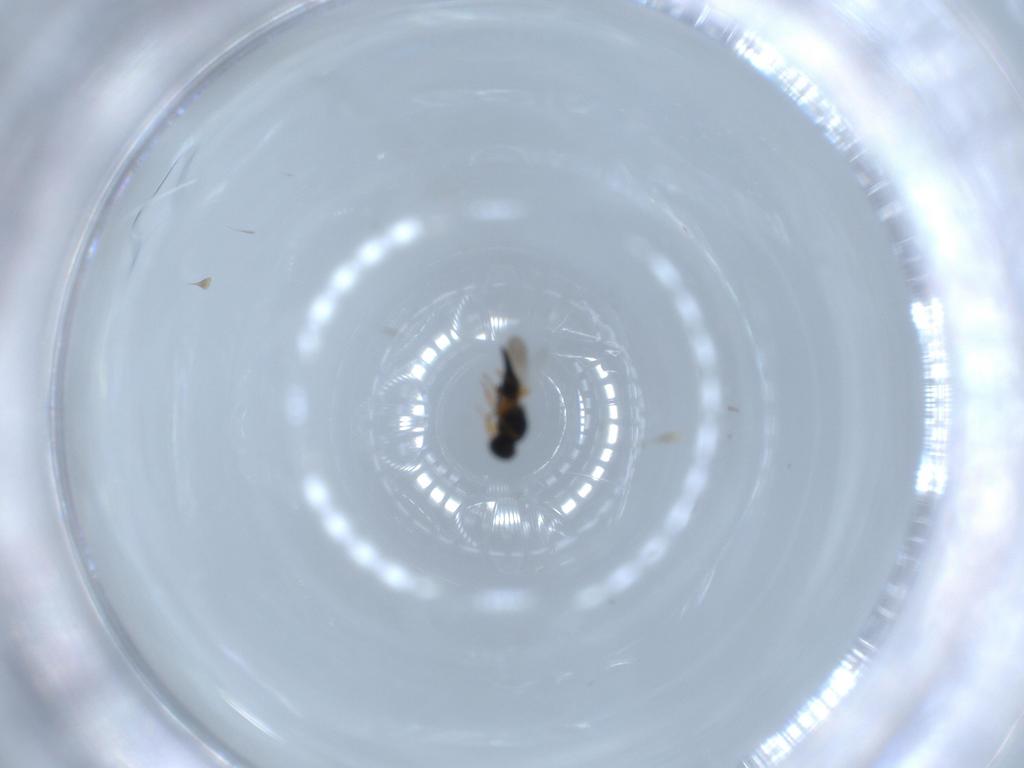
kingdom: Animalia
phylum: Arthropoda
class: Insecta
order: Hymenoptera
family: Platygastridae
